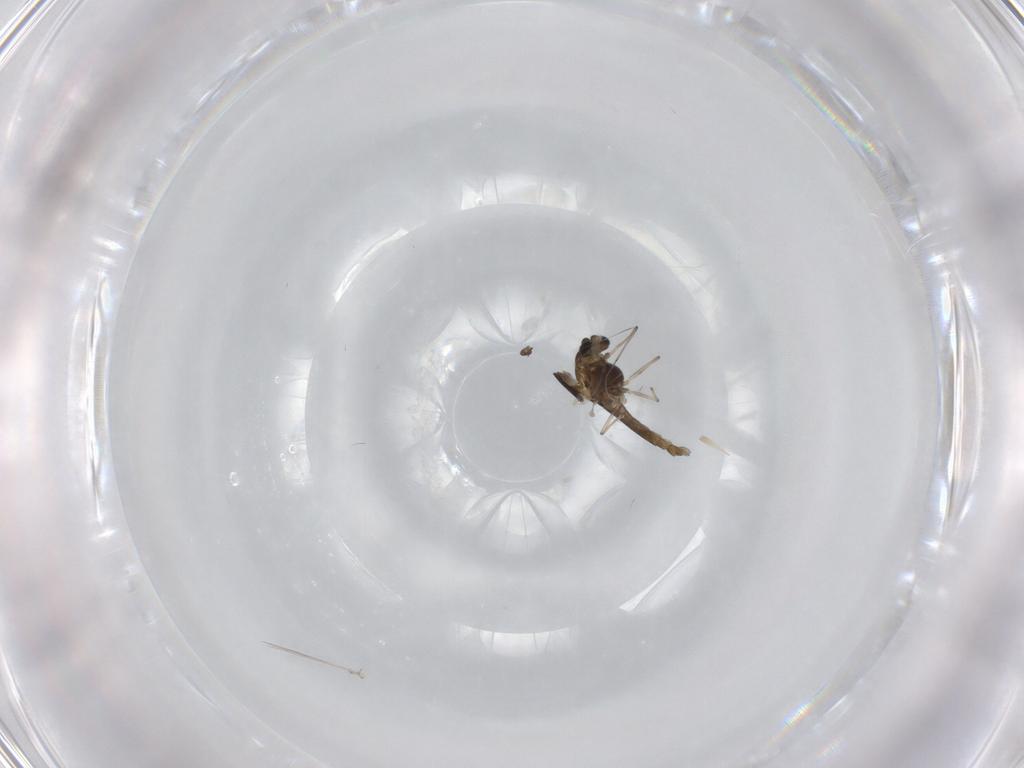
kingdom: Animalia
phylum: Arthropoda
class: Insecta
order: Diptera
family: Chironomidae
